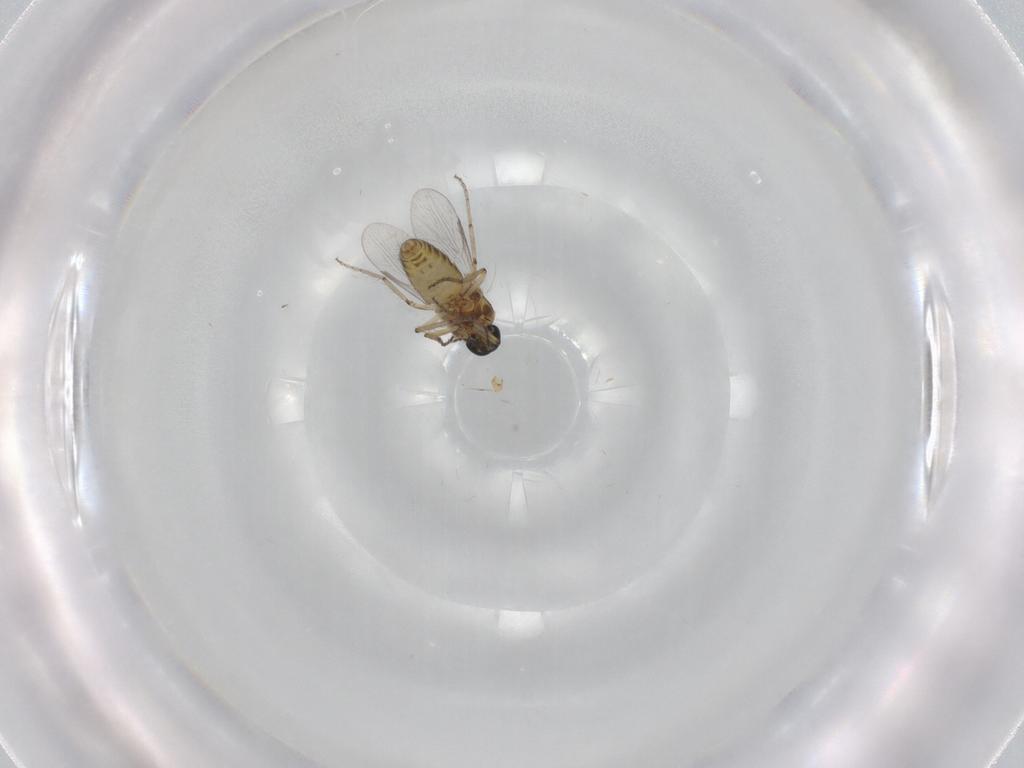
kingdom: Animalia
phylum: Arthropoda
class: Insecta
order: Diptera
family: Ceratopogonidae
